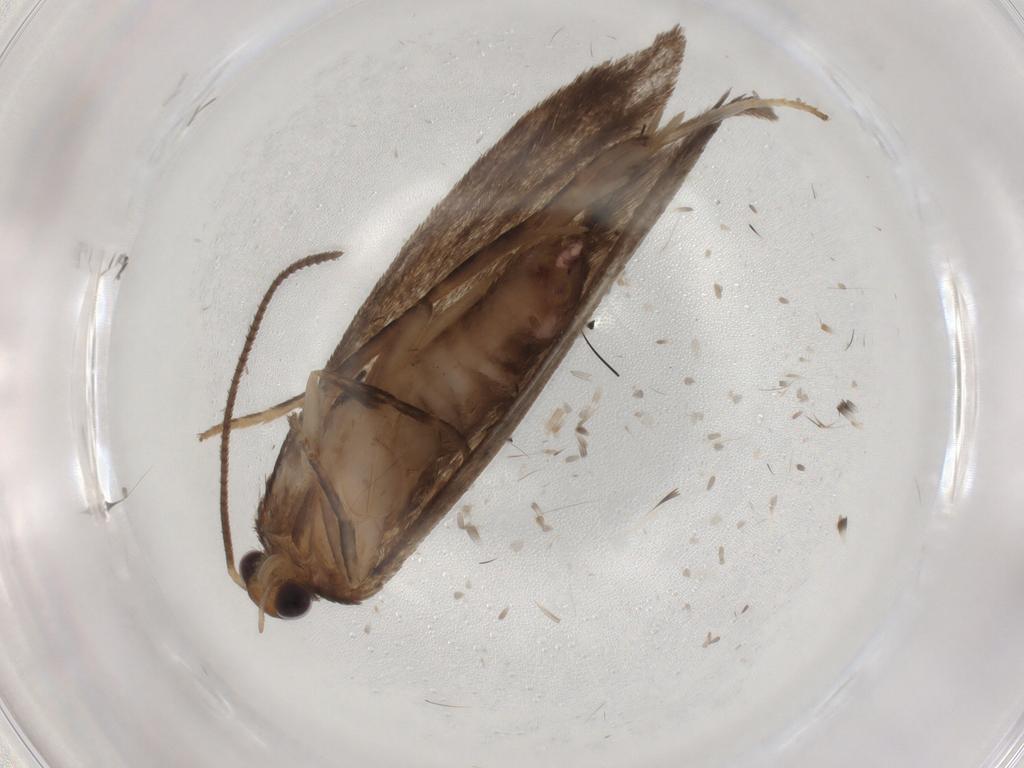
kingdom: Animalia
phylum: Arthropoda
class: Insecta
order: Lepidoptera
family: Praydidae
